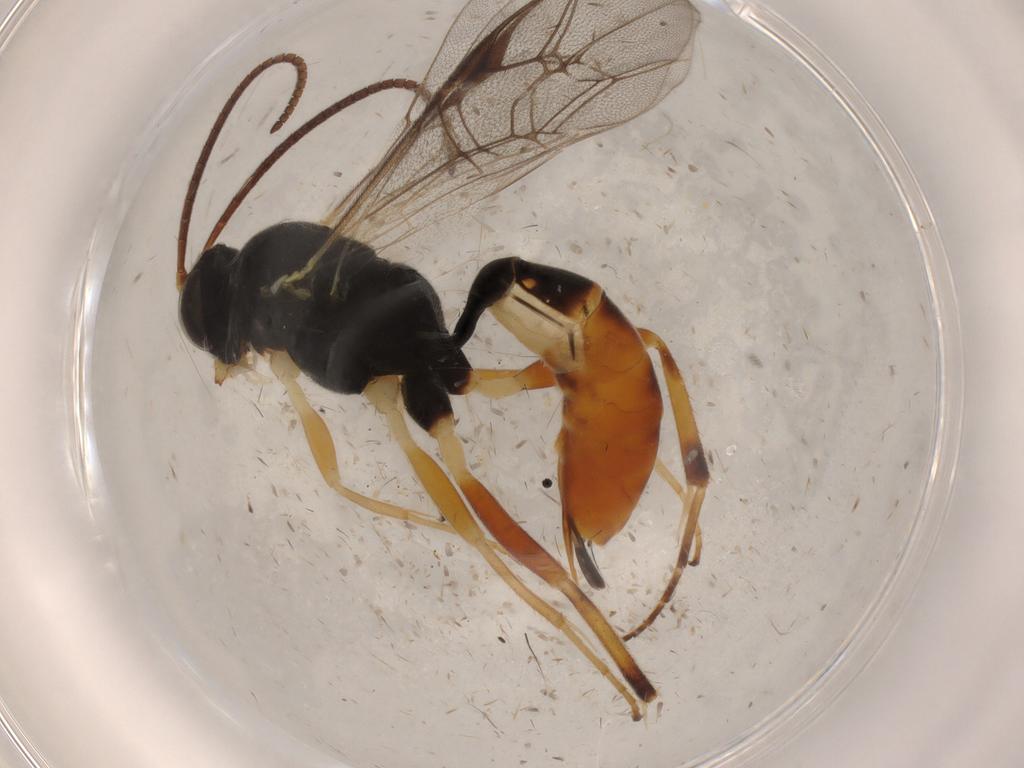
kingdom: Animalia
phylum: Arthropoda
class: Insecta
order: Hymenoptera
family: Ichneumonidae
